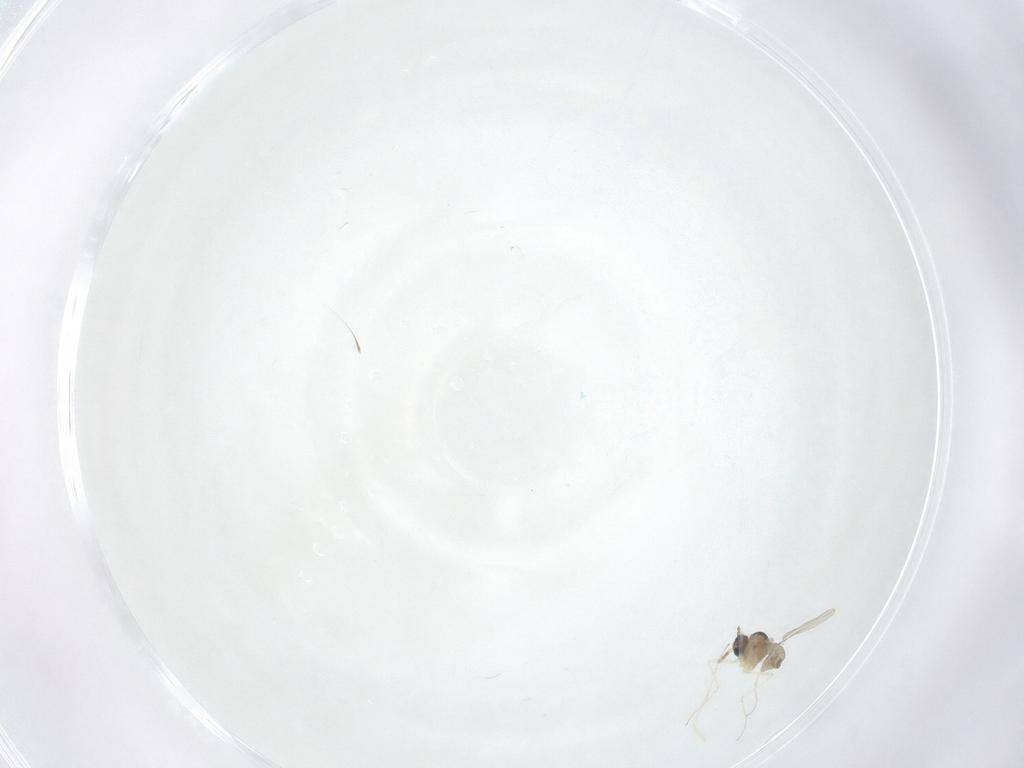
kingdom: Animalia
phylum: Arthropoda
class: Insecta
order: Diptera
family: Cecidomyiidae
